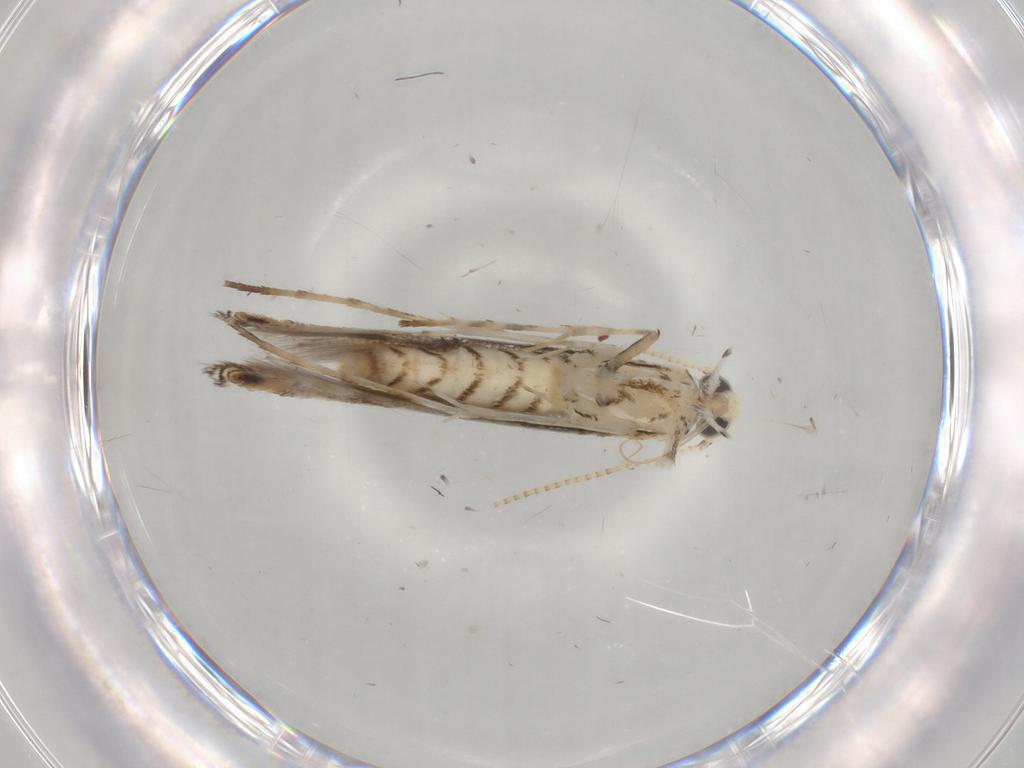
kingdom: Animalia
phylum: Arthropoda
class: Insecta
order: Lepidoptera
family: Gracillariidae
